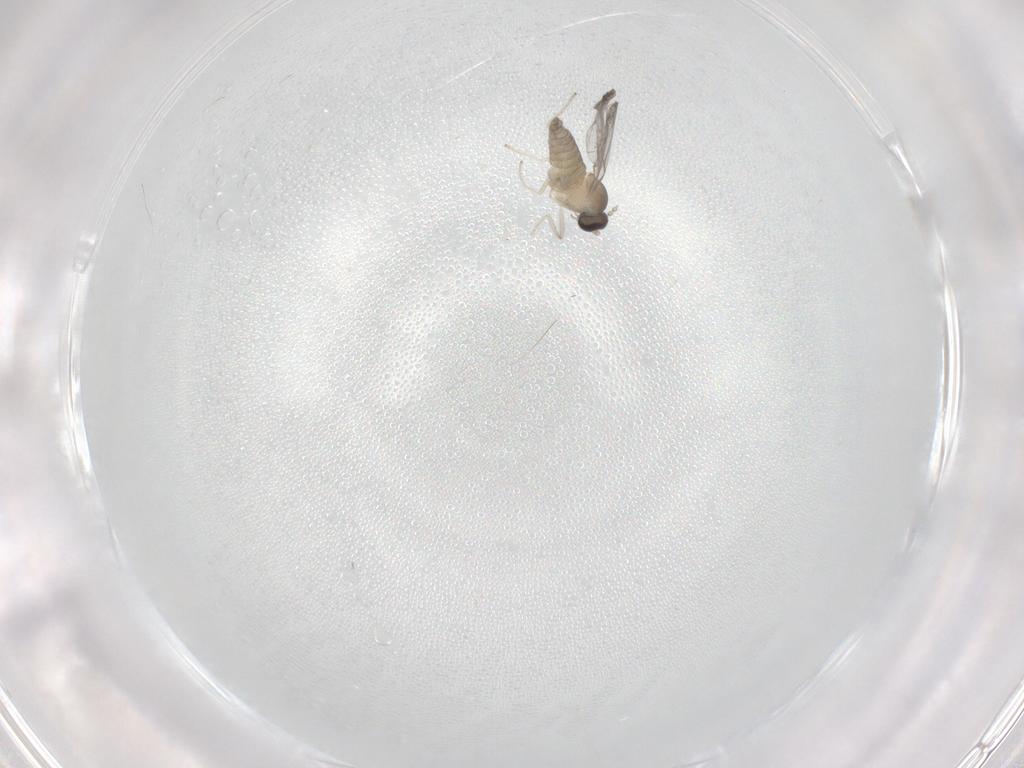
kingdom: Animalia
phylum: Arthropoda
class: Insecta
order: Diptera
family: Cecidomyiidae
